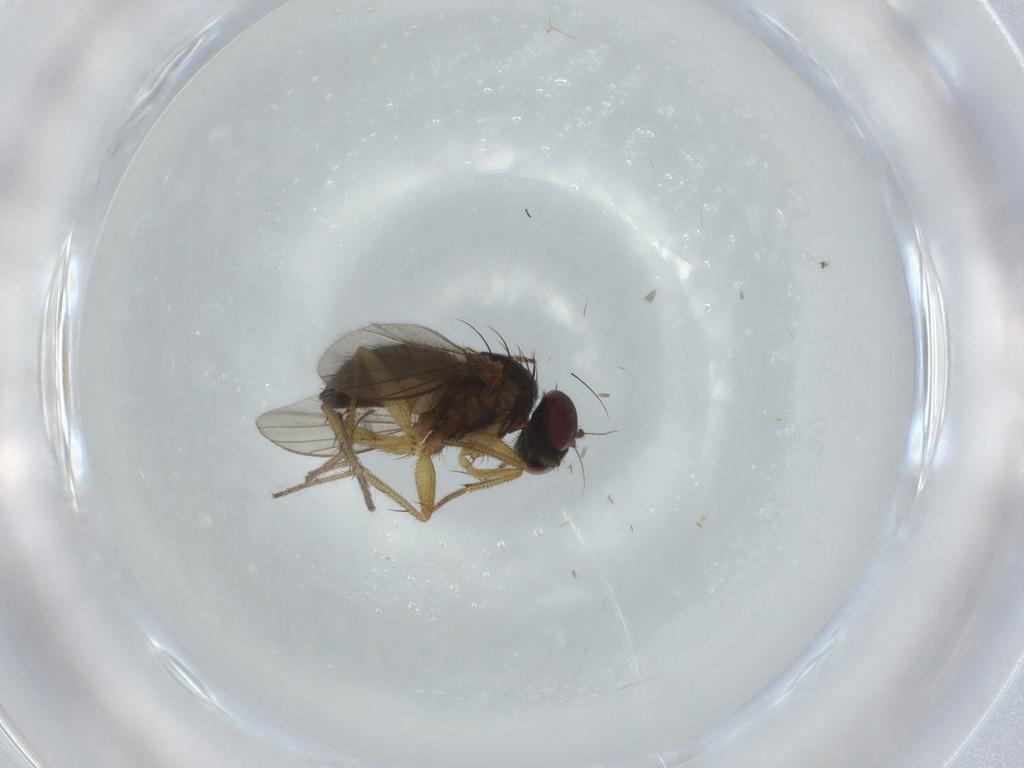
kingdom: Animalia
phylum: Arthropoda
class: Insecta
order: Diptera
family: Dolichopodidae
